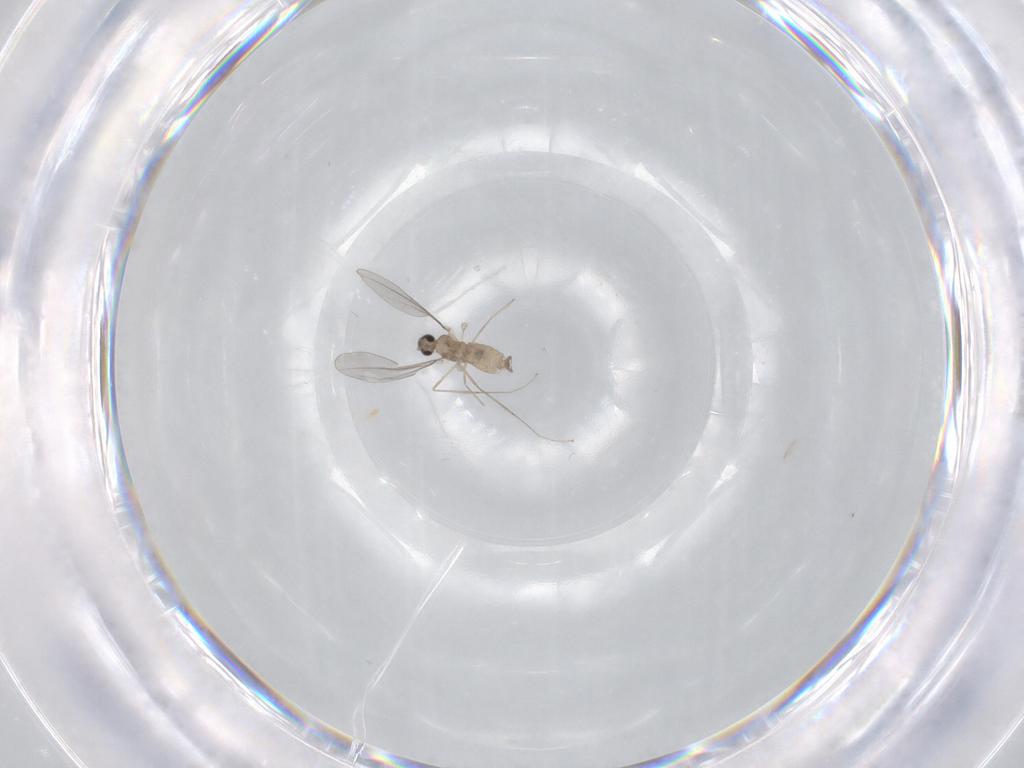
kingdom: Animalia
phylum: Arthropoda
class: Insecta
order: Diptera
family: Cecidomyiidae
